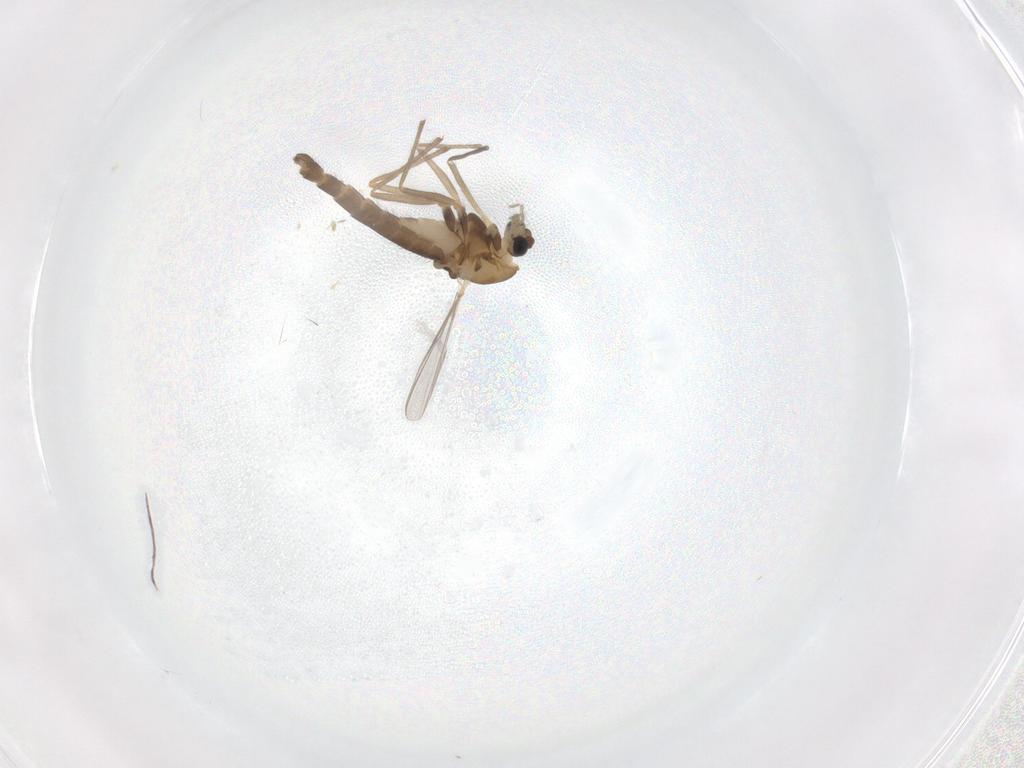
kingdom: Animalia
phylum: Arthropoda
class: Insecta
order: Diptera
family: Chironomidae
